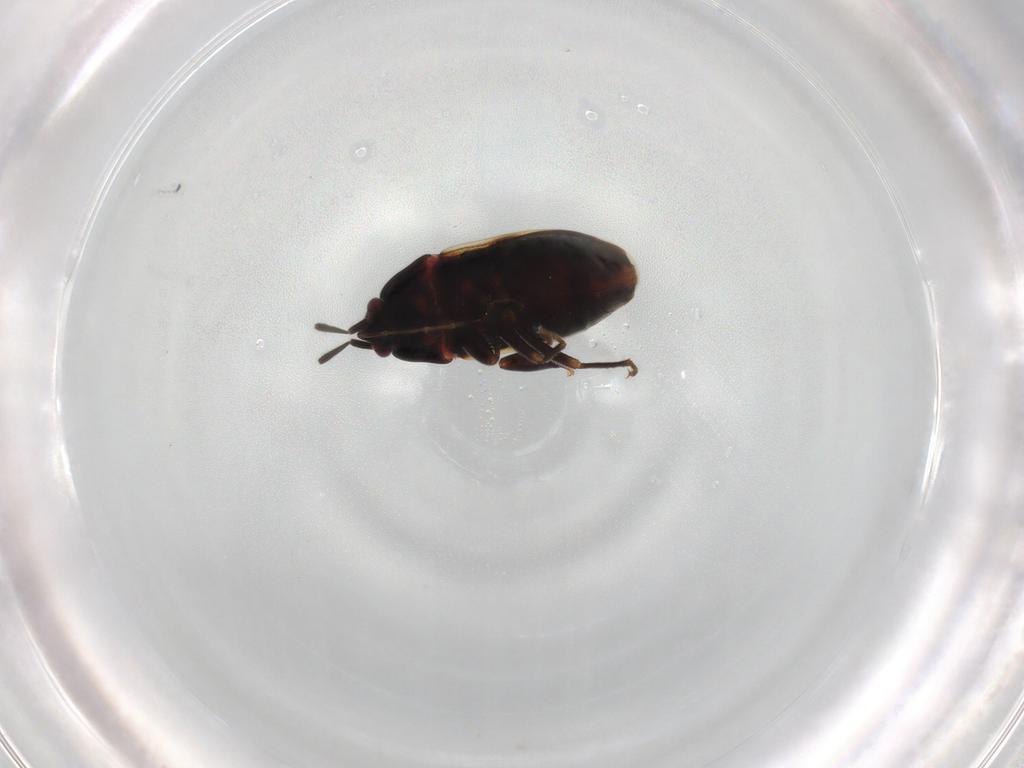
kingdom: Animalia
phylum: Arthropoda
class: Insecta
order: Hemiptera
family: Rhyparochromidae
